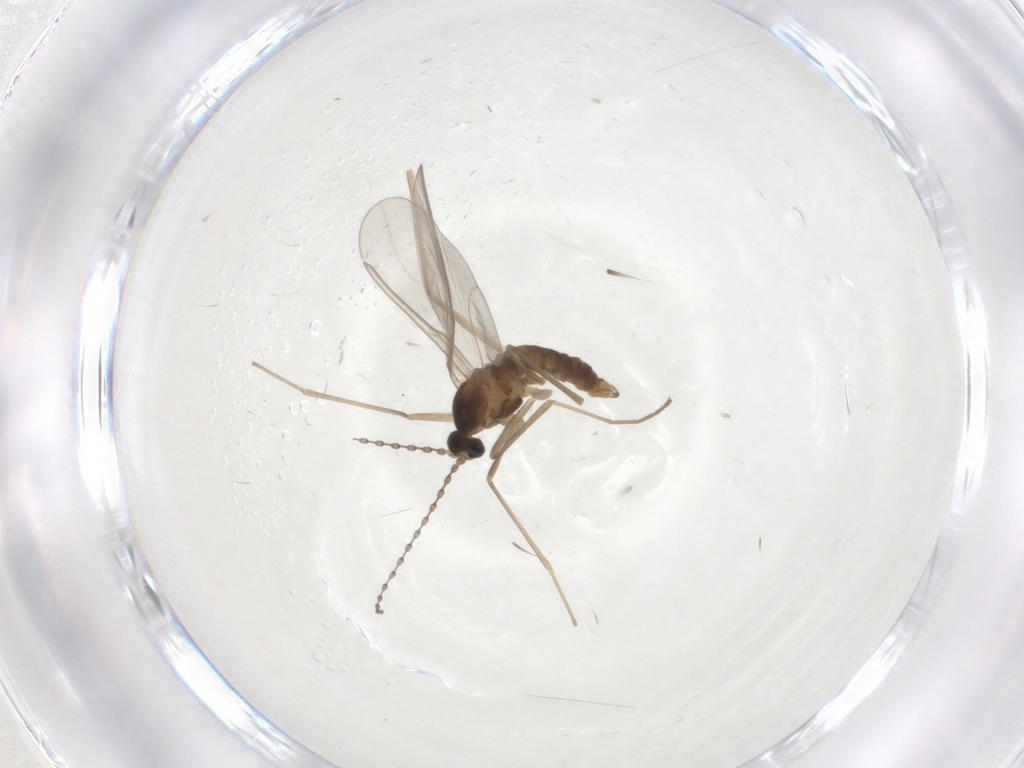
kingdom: Animalia
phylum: Arthropoda
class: Insecta
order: Diptera
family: Cecidomyiidae
